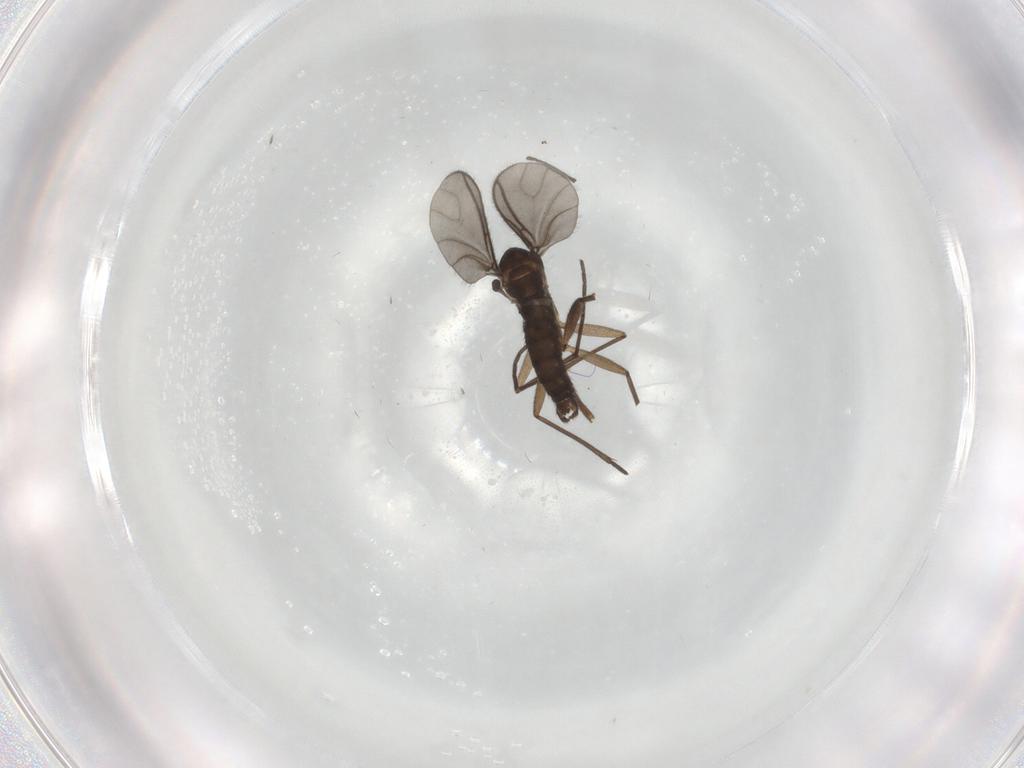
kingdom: Animalia
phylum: Arthropoda
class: Insecta
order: Diptera
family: Sciaridae
